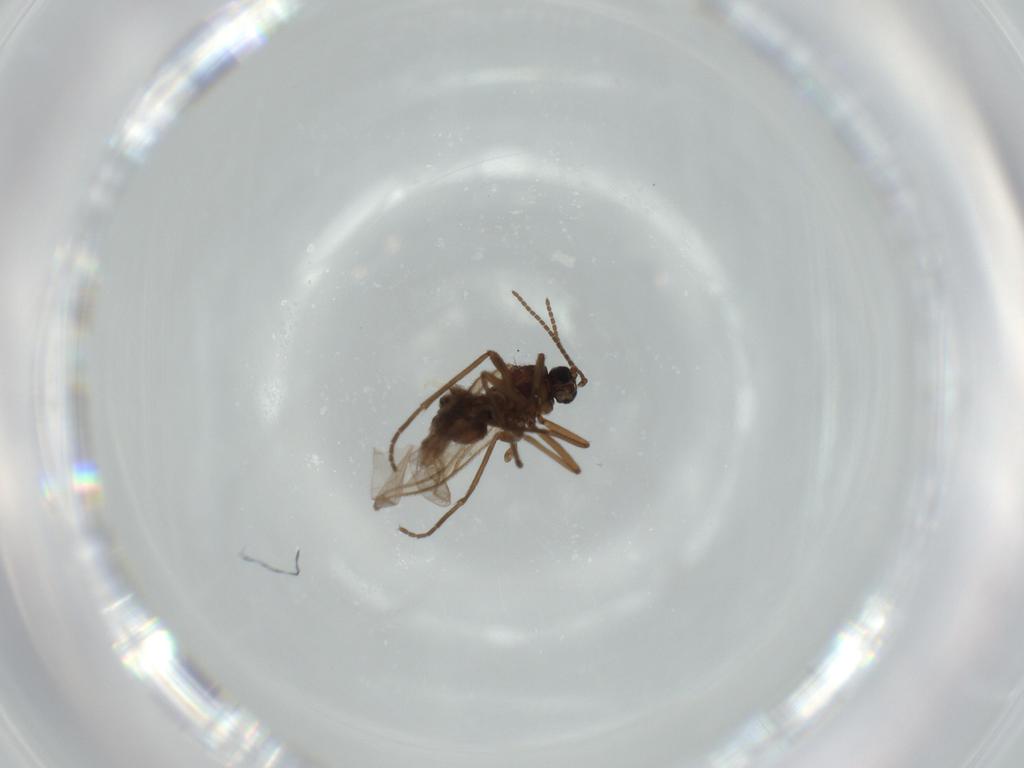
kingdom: Animalia
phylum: Arthropoda
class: Insecta
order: Diptera
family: Sciaridae
